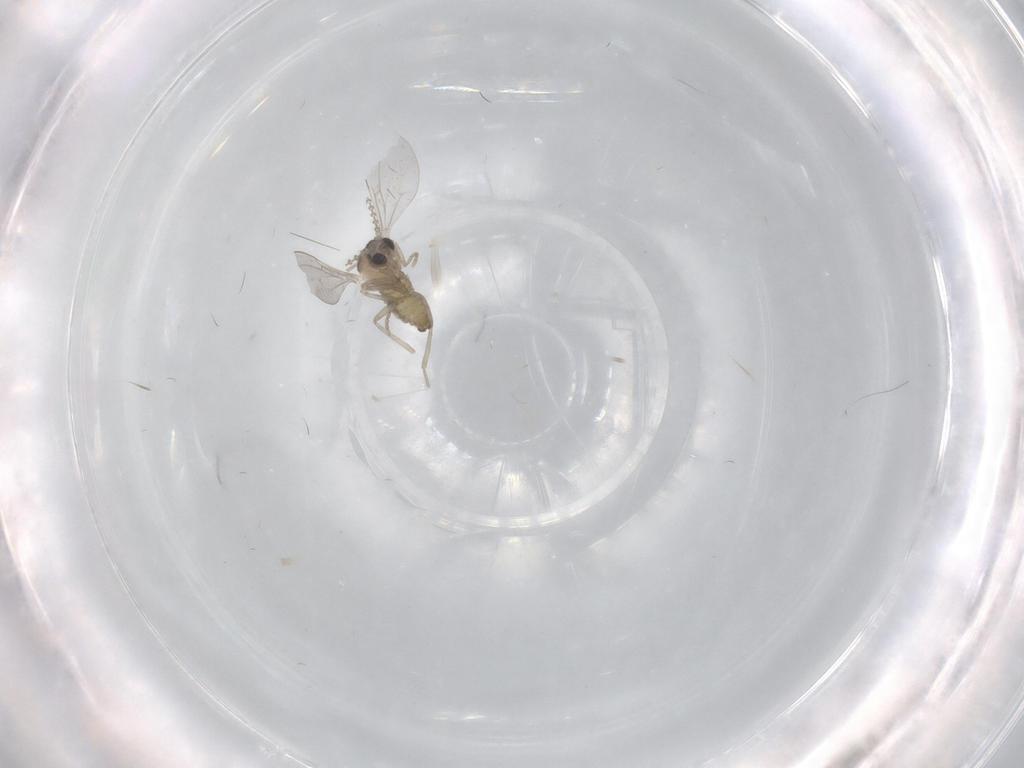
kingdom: Animalia
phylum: Arthropoda
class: Insecta
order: Diptera
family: Cecidomyiidae
